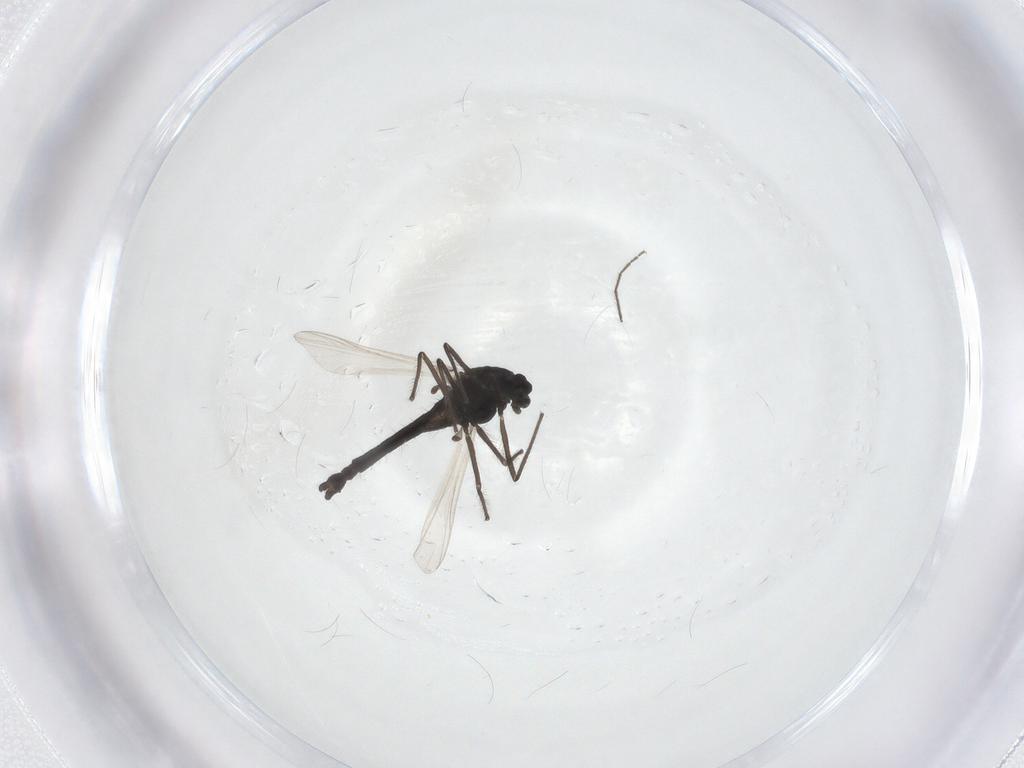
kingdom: Animalia
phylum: Arthropoda
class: Insecta
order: Diptera
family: Chironomidae
